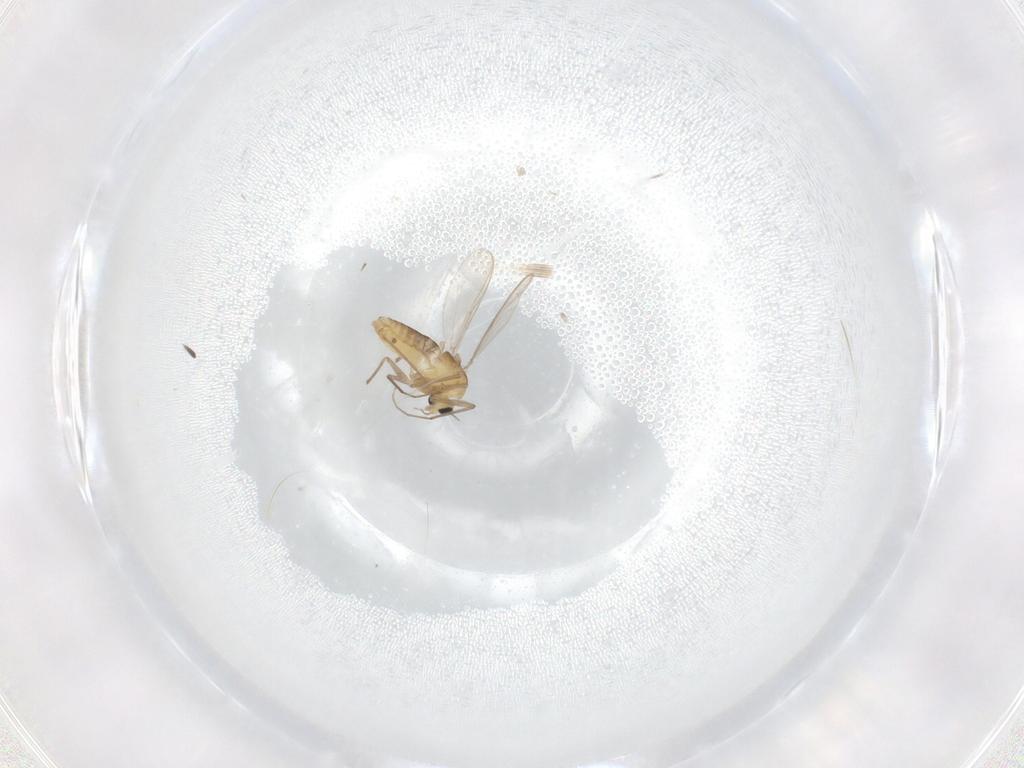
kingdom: Animalia
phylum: Arthropoda
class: Insecta
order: Diptera
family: Chironomidae
